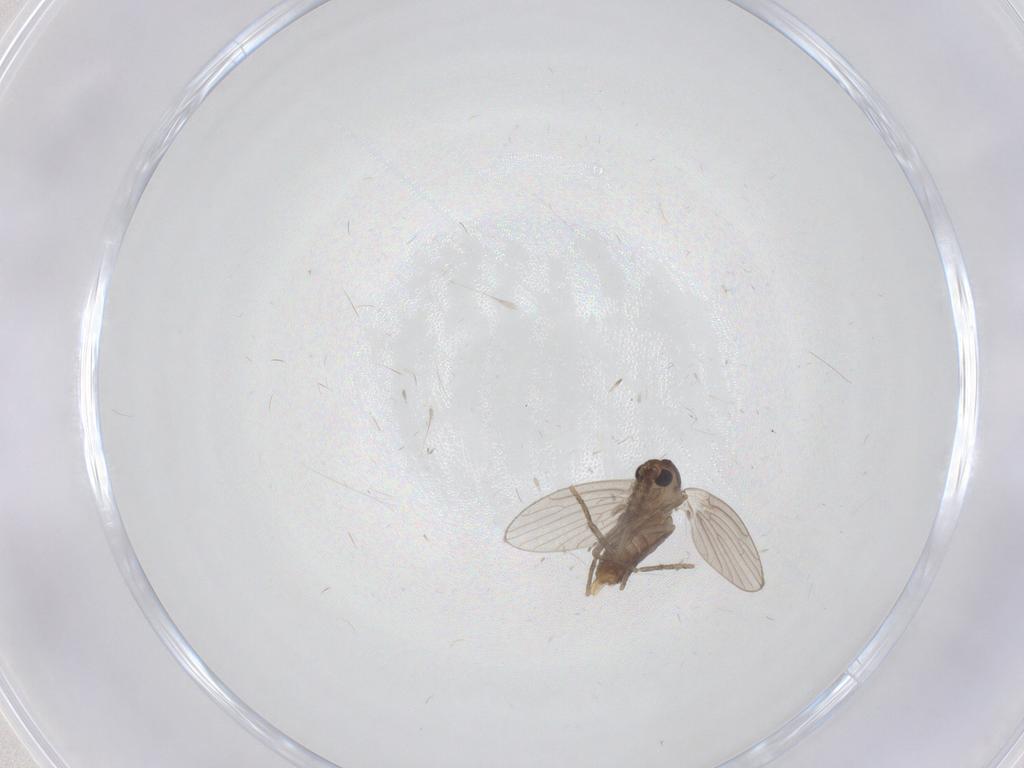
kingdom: Animalia
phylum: Arthropoda
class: Insecta
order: Diptera
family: Psychodidae
